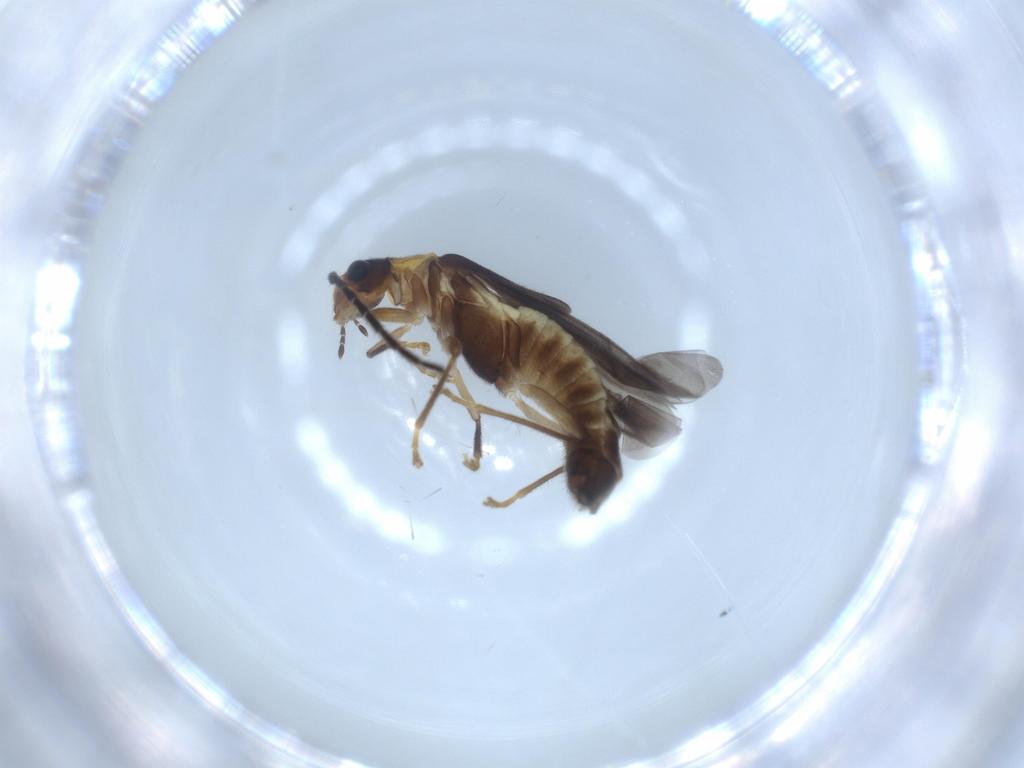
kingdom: Animalia
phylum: Arthropoda
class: Insecta
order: Coleoptera
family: Cantharidae
